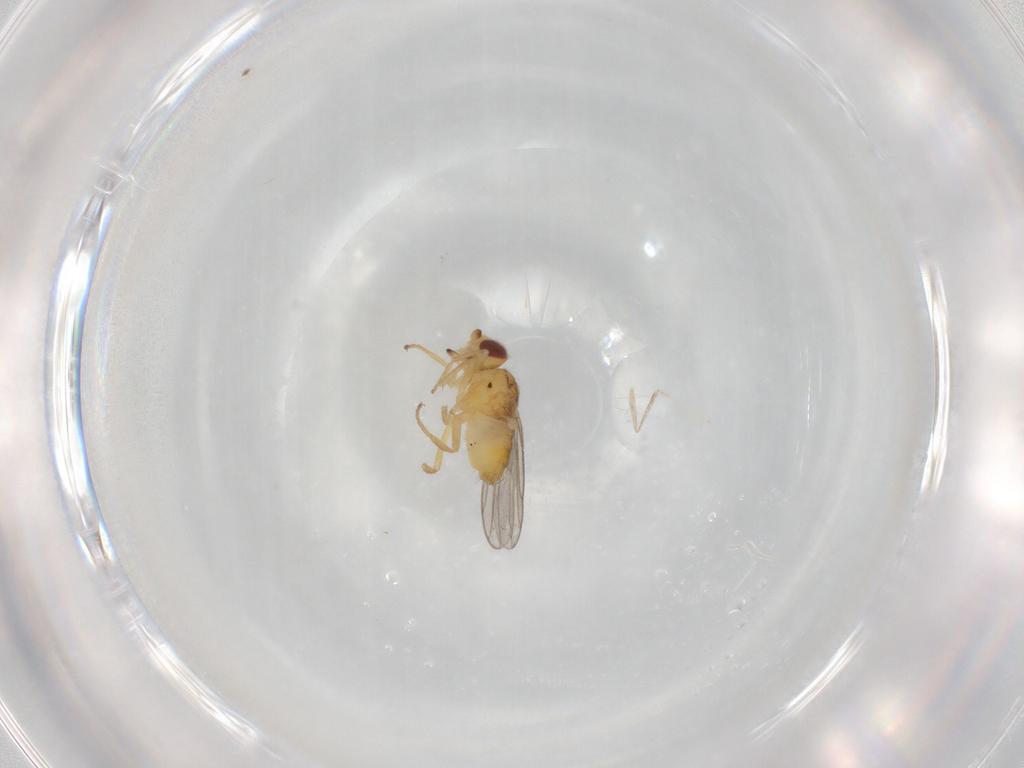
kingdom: Animalia
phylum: Arthropoda
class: Insecta
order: Diptera
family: Chloropidae
